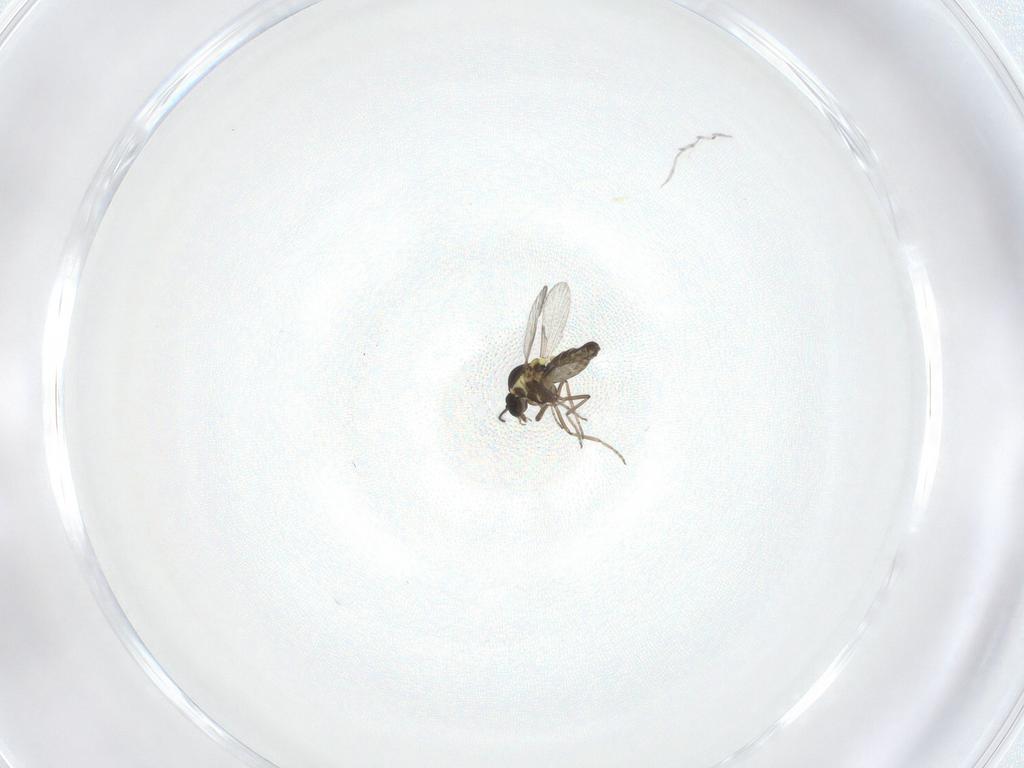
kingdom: Animalia
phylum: Arthropoda
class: Insecta
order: Diptera
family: Ceratopogonidae
